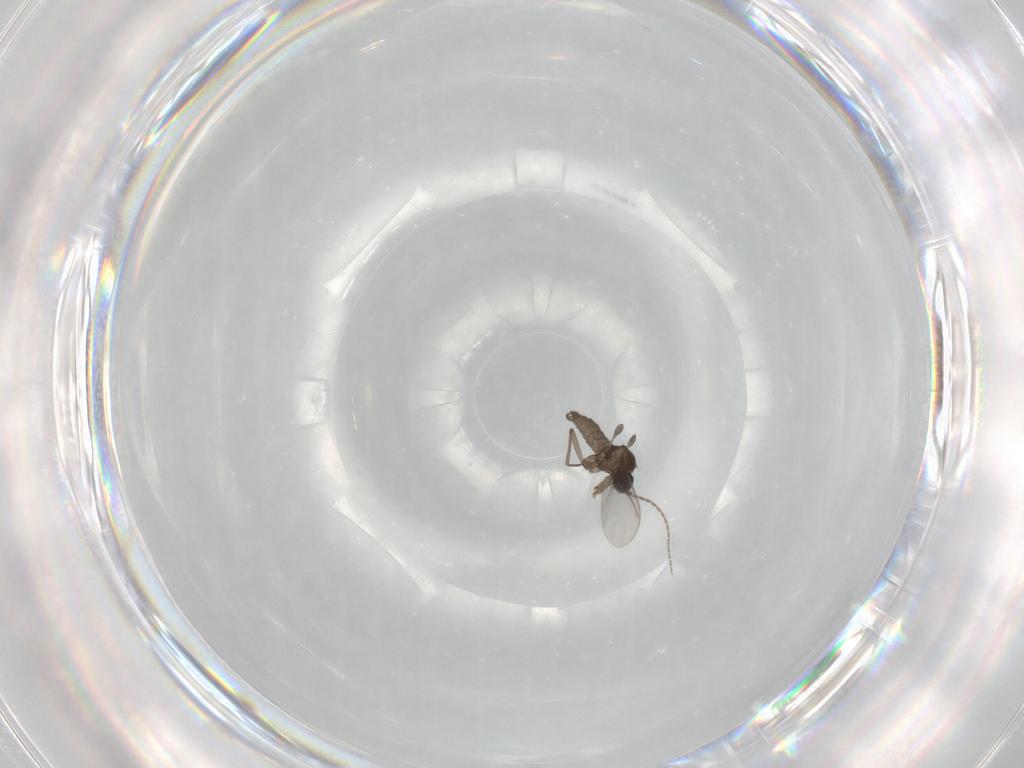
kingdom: Animalia
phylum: Arthropoda
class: Insecta
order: Diptera
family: Sciaridae
